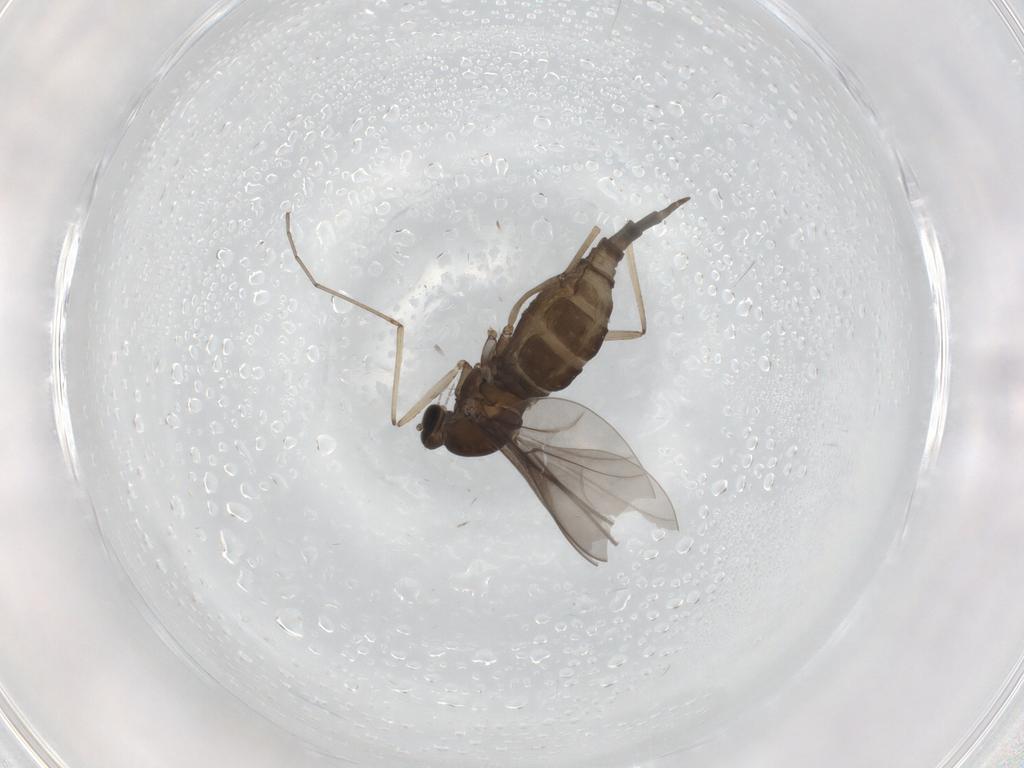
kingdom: Animalia
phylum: Arthropoda
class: Insecta
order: Diptera
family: Cecidomyiidae
